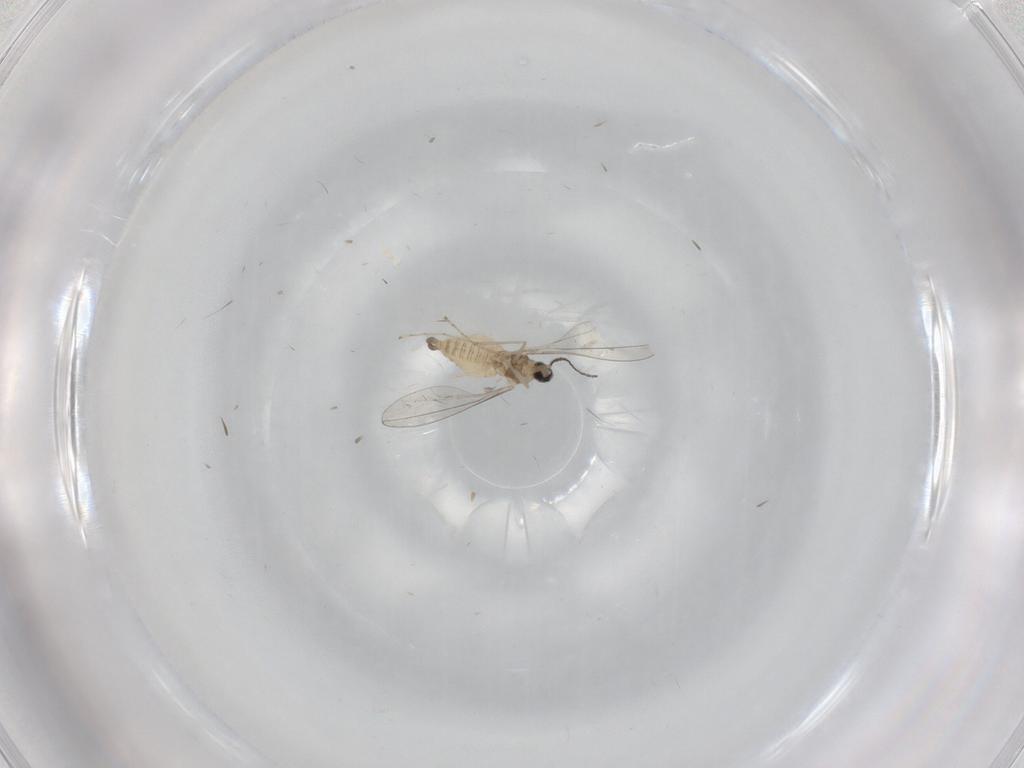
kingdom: Animalia
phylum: Arthropoda
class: Insecta
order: Diptera
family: Cecidomyiidae
